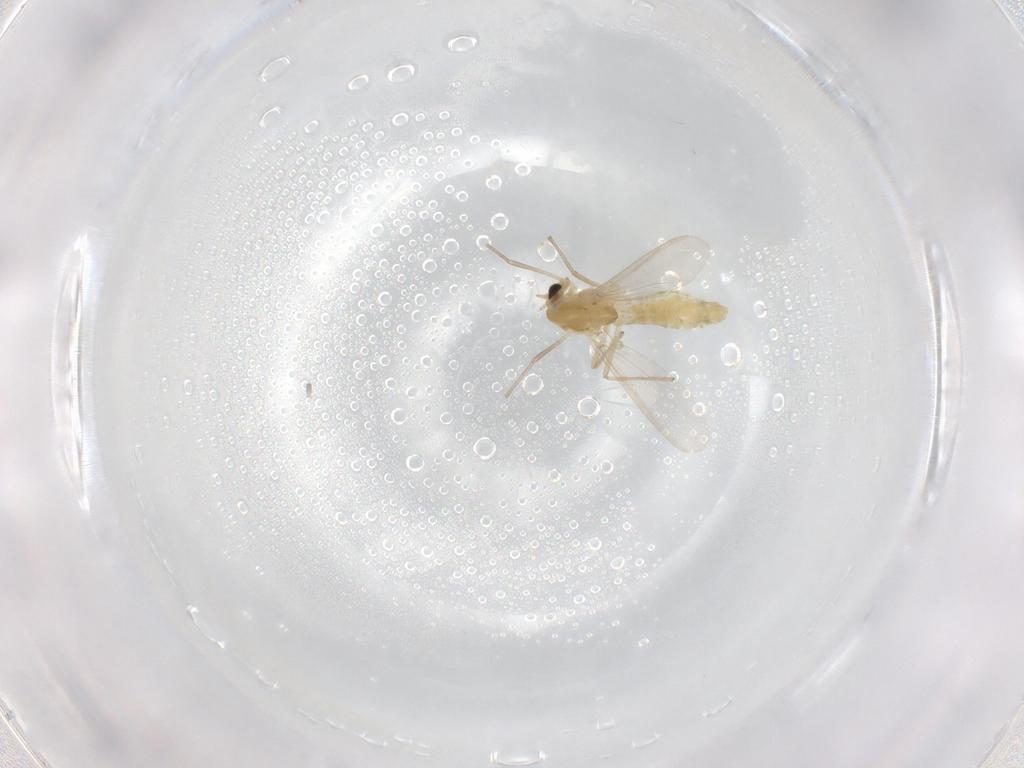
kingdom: Animalia
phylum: Arthropoda
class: Insecta
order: Diptera
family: Chironomidae
